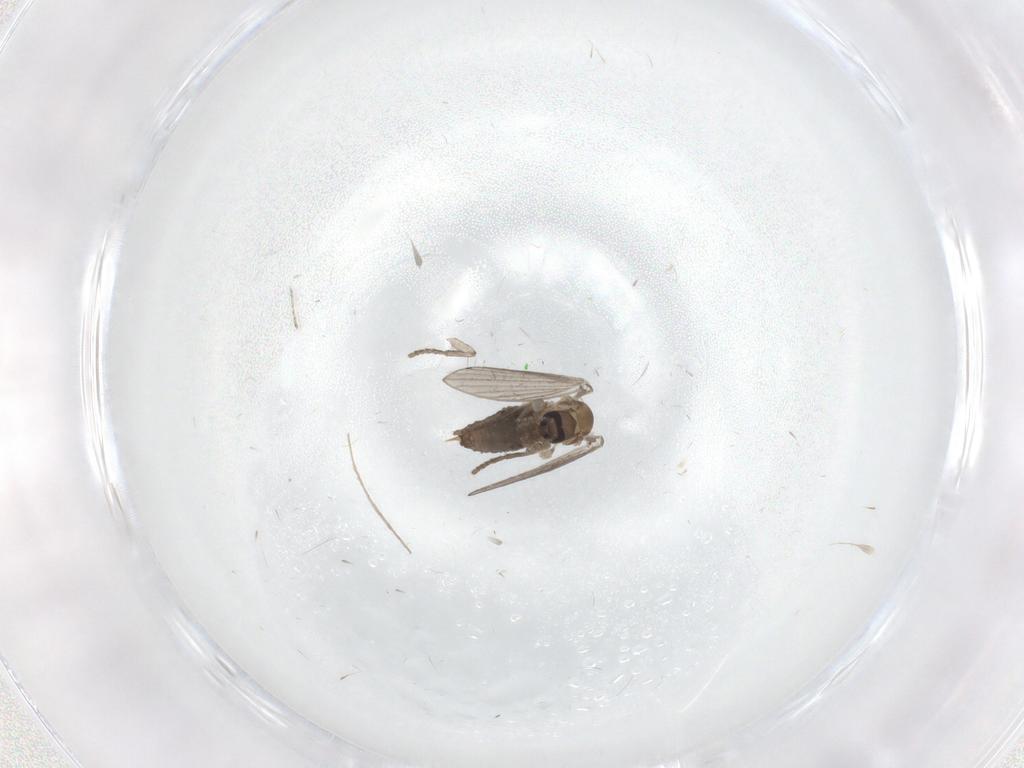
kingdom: Animalia
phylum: Arthropoda
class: Insecta
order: Diptera
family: Ceratopogonidae
